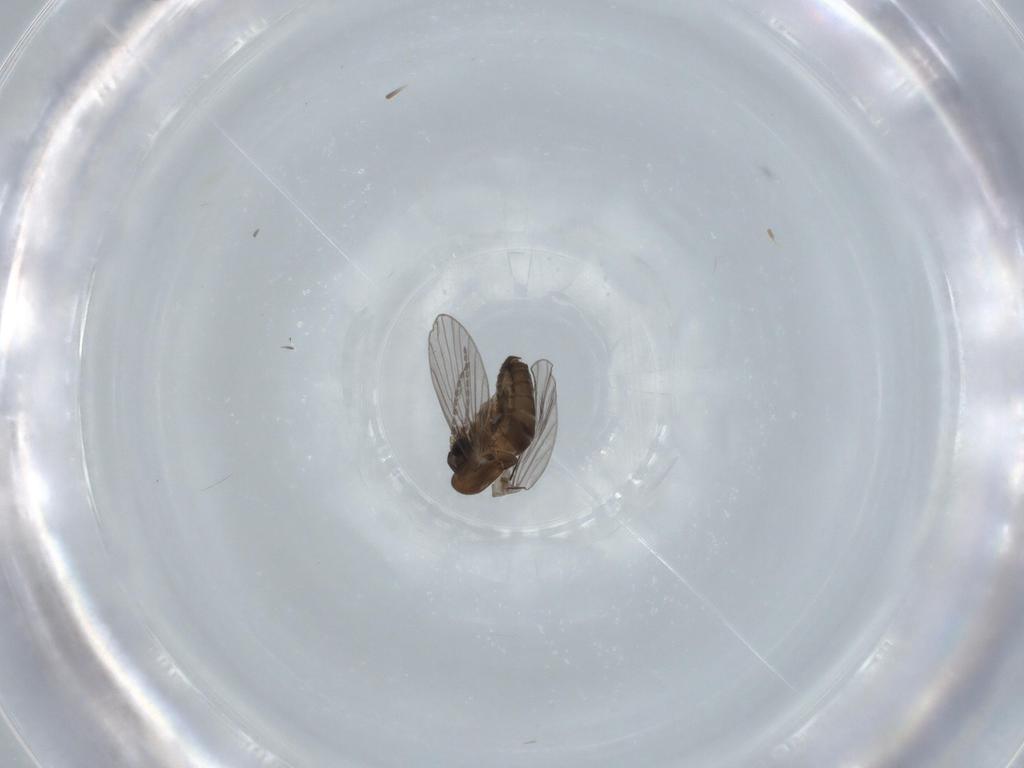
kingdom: Animalia
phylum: Arthropoda
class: Insecta
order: Diptera
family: Psychodidae
